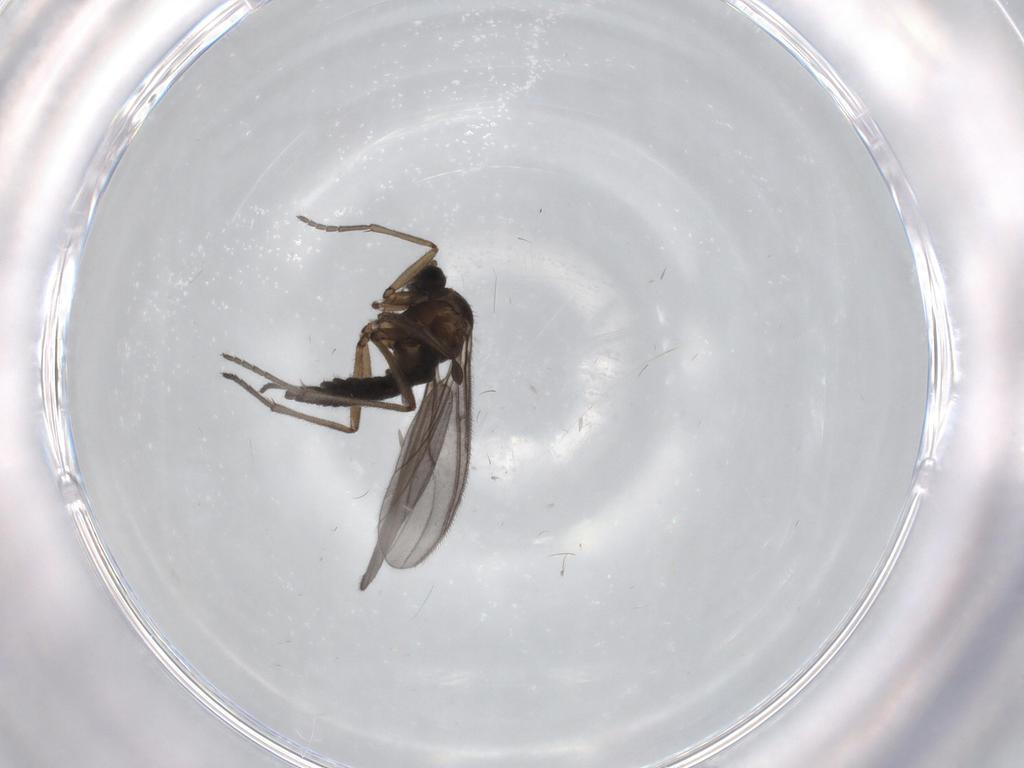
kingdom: Animalia
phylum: Arthropoda
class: Insecta
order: Diptera
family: Sciaridae
